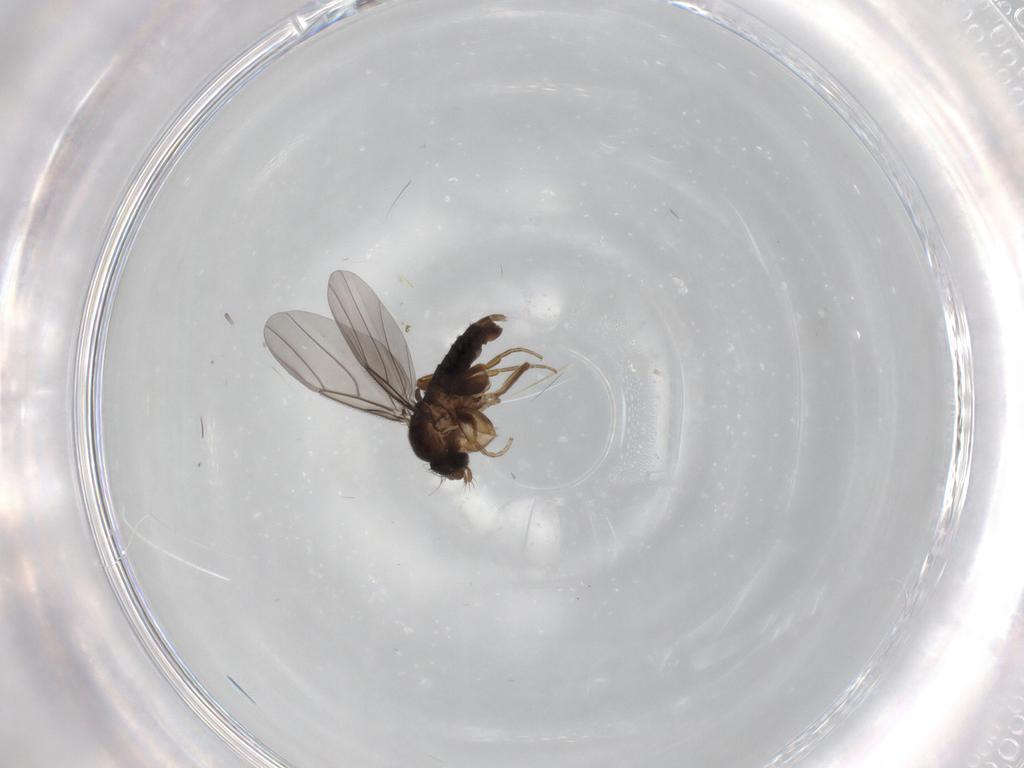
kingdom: Animalia
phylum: Arthropoda
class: Insecta
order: Diptera
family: Phoridae
